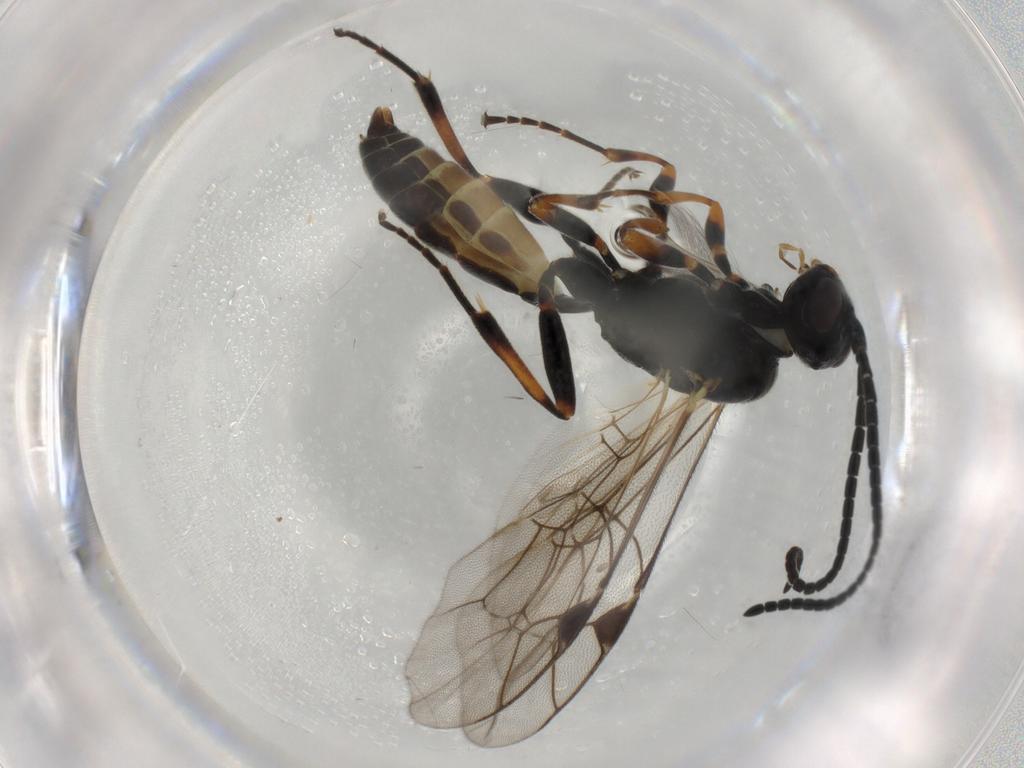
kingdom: Animalia
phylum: Arthropoda
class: Insecta
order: Hymenoptera
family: Ichneumonidae
